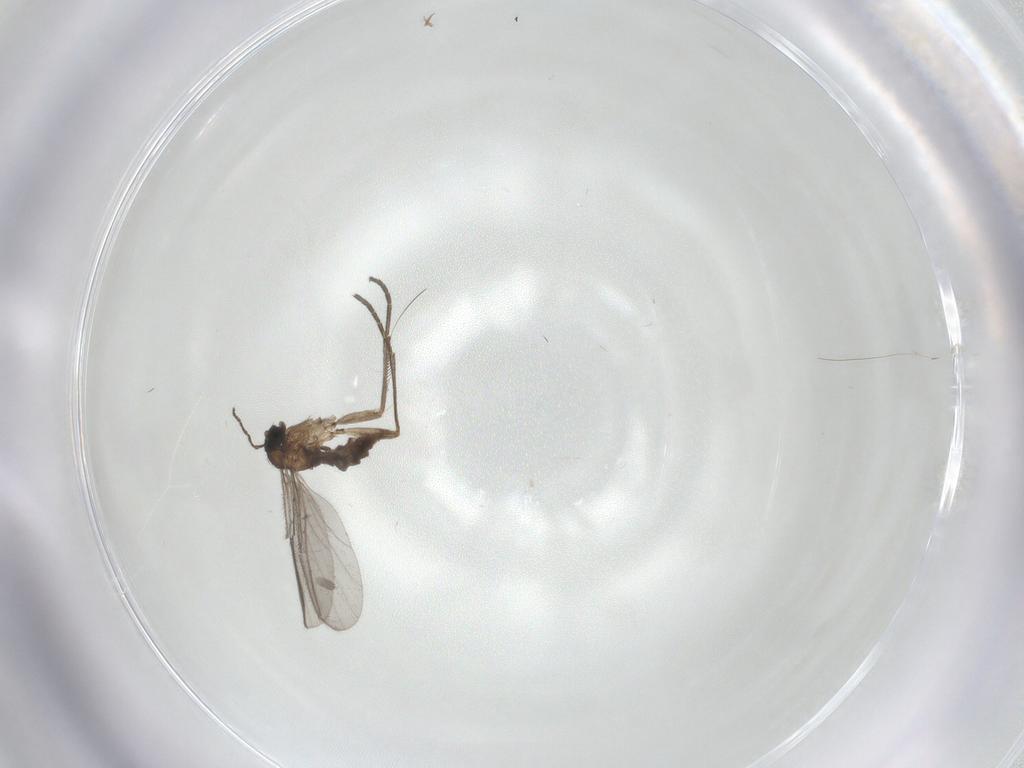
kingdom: Animalia
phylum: Arthropoda
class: Insecta
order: Diptera
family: Sciaridae
